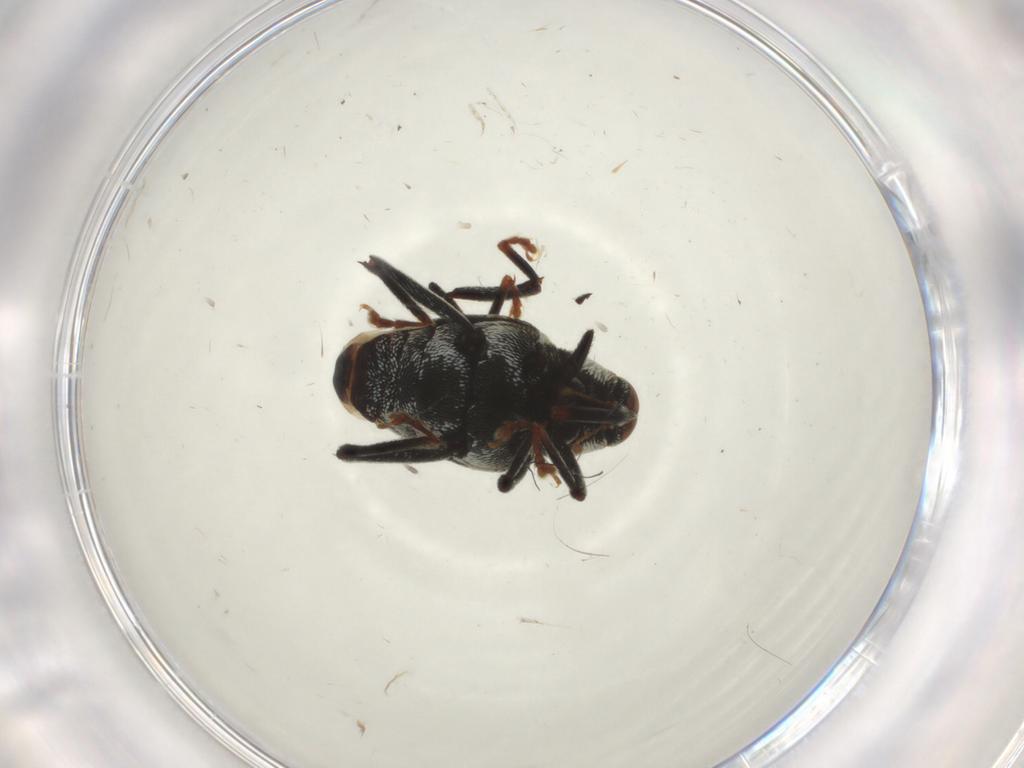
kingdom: Animalia
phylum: Arthropoda
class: Insecta
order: Coleoptera
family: Curculionidae
